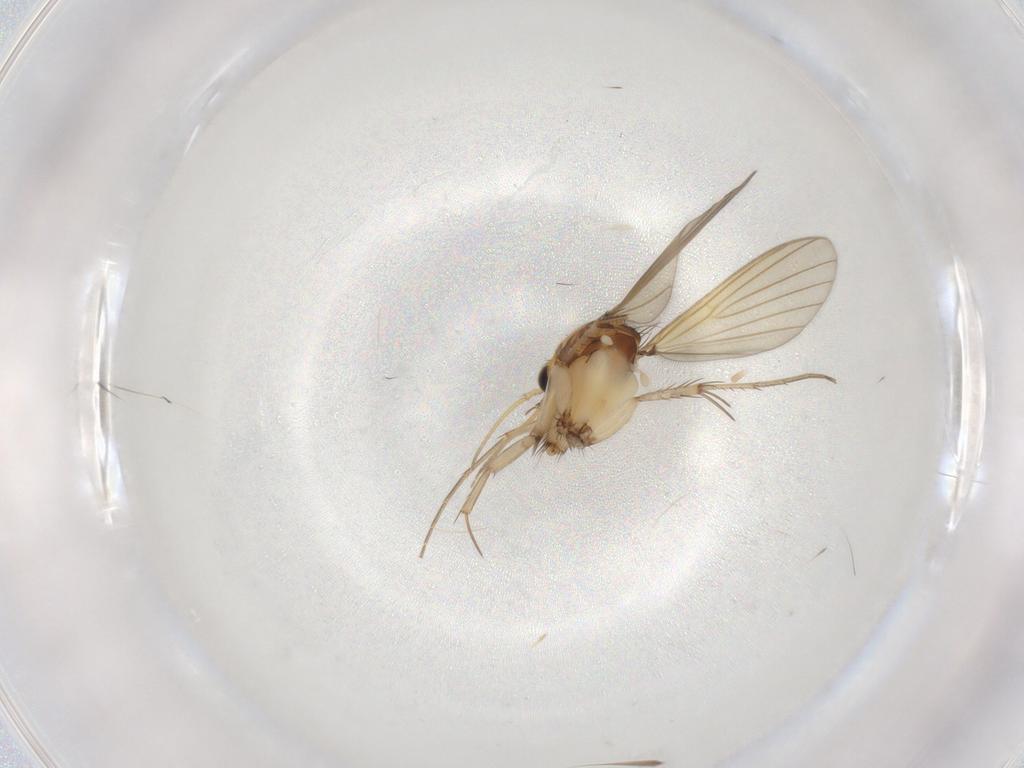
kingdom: Animalia
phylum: Arthropoda
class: Insecta
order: Diptera
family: Mycetophilidae
